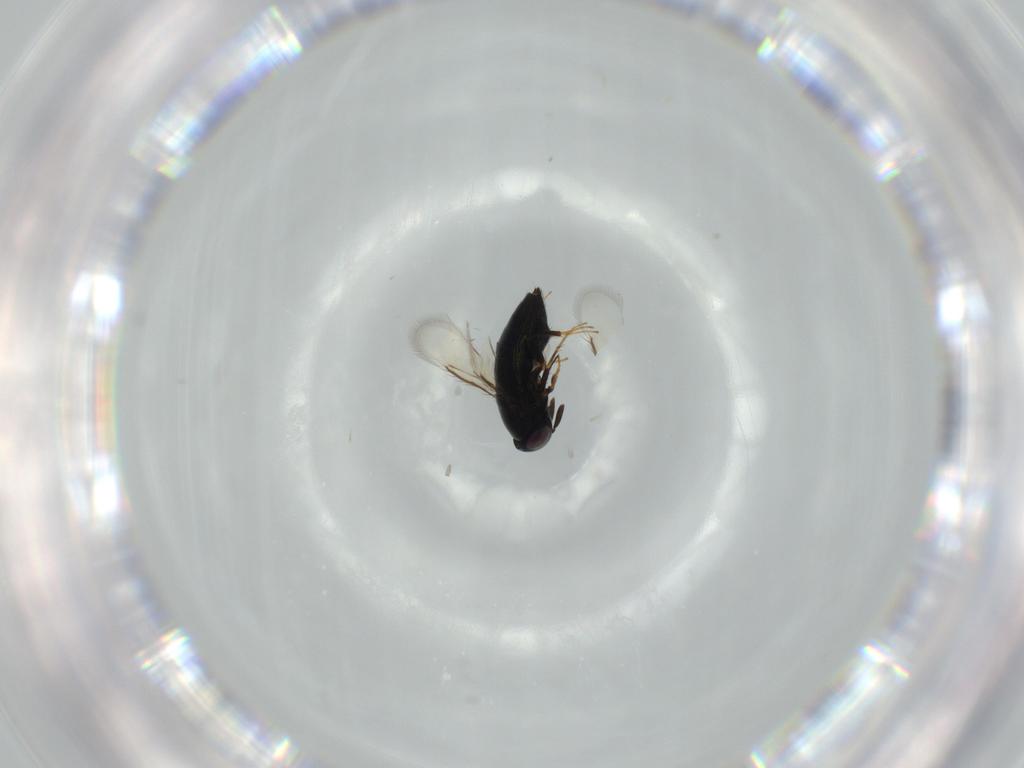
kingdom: Animalia
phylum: Arthropoda
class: Insecta
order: Hymenoptera
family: Signiphoridae
